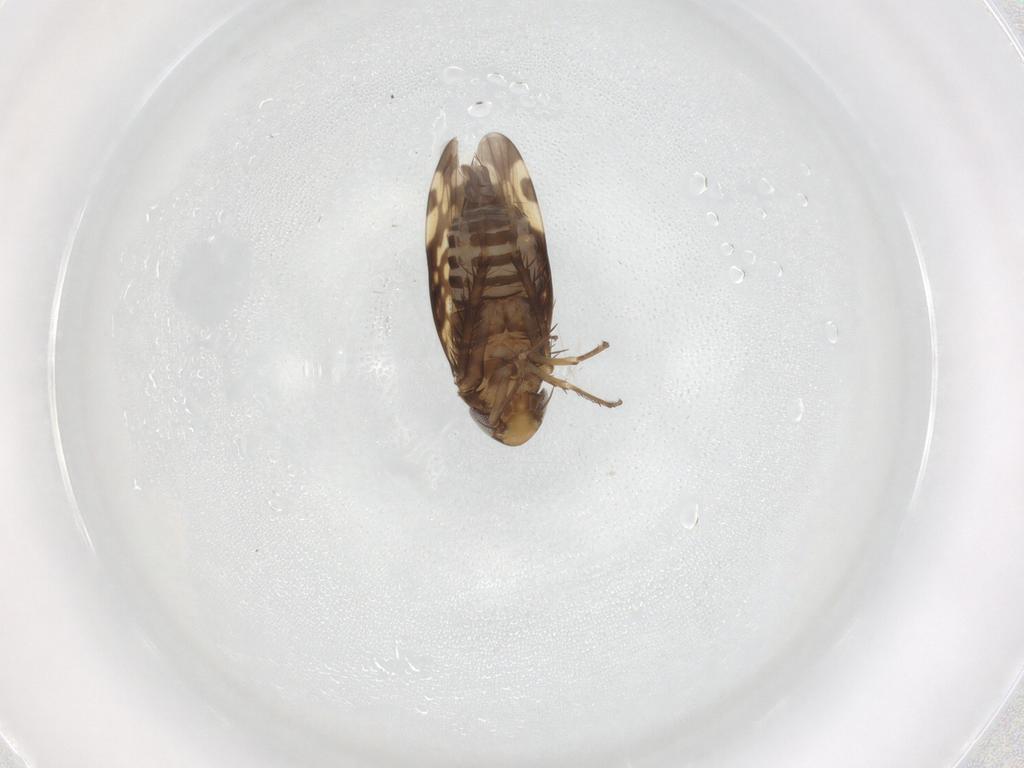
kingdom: Animalia
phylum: Arthropoda
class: Insecta
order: Hemiptera
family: Cicadellidae
